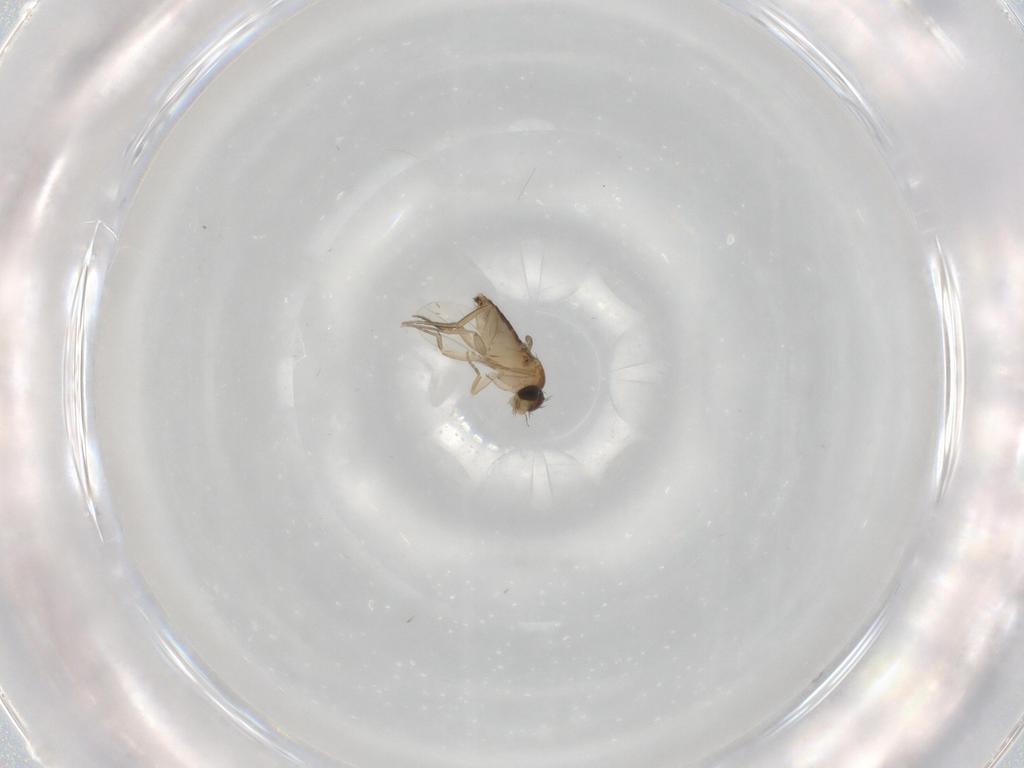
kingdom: Animalia
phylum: Arthropoda
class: Insecta
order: Diptera
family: Phoridae
